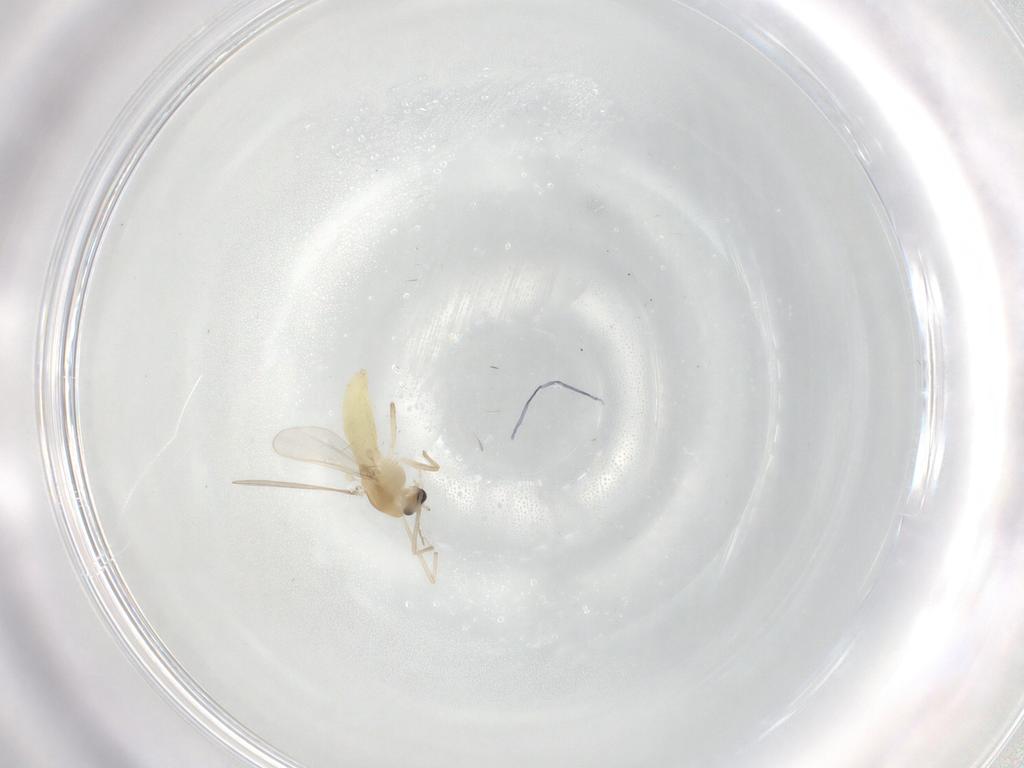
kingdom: Animalia
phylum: Arthropoda
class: Insecta
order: Diptera
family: Cecidomyiidae
